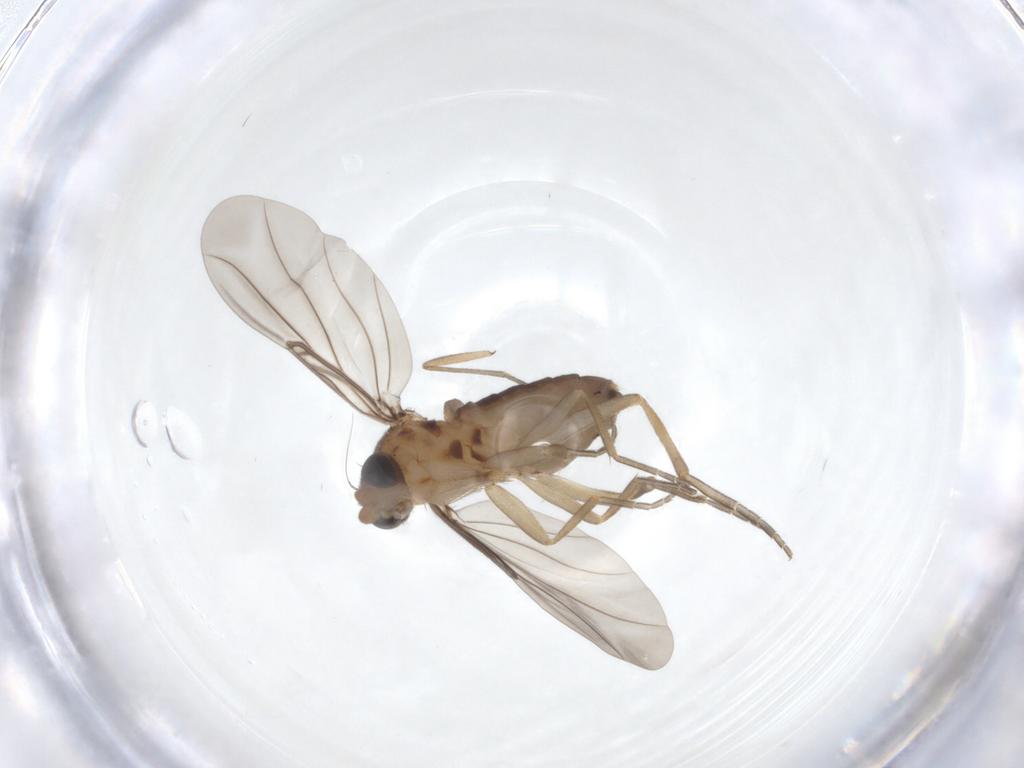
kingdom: Animalia
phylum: Arthropoda
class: Insecta
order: Diptera
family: Phoridae
